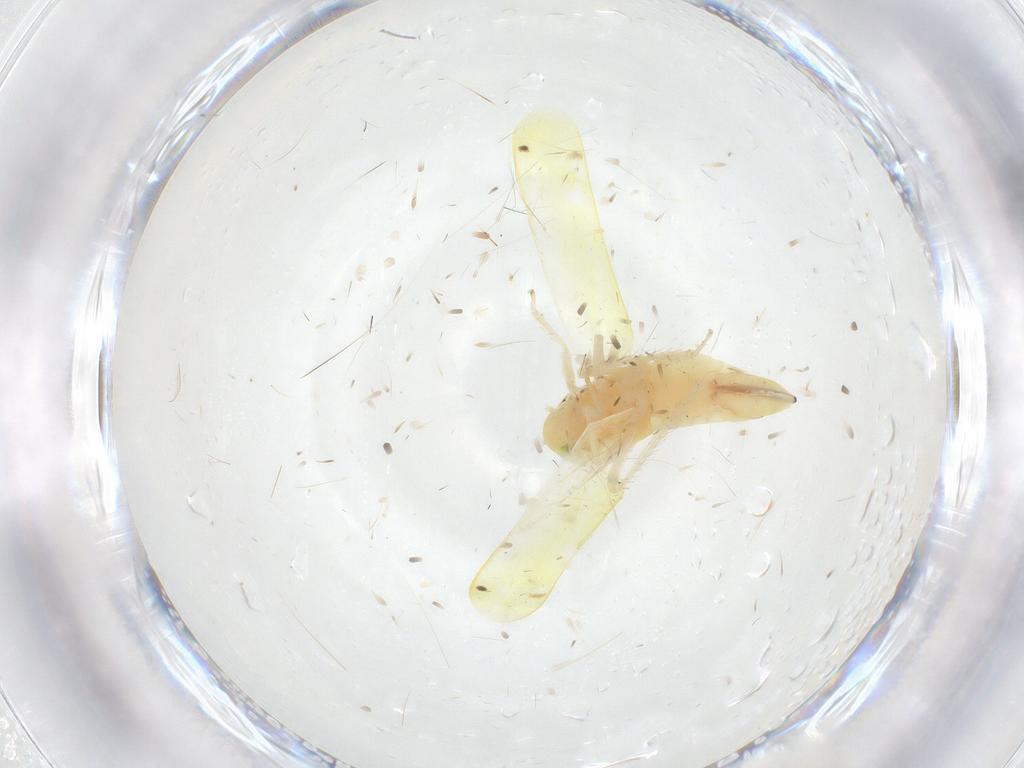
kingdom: Animalia
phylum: Arthropoda
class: Insecta
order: Hemiptera
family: Cicadellidae
